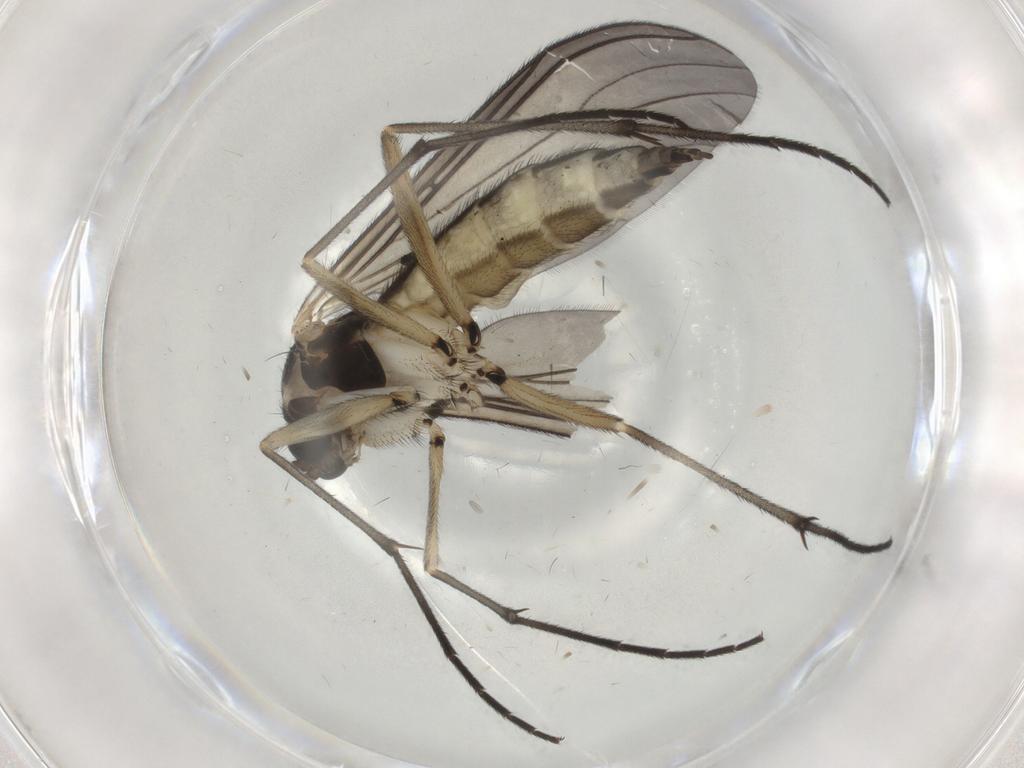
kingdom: Animalia
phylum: Arthropoda
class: Insecta
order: Diptera
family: Sciaridae
